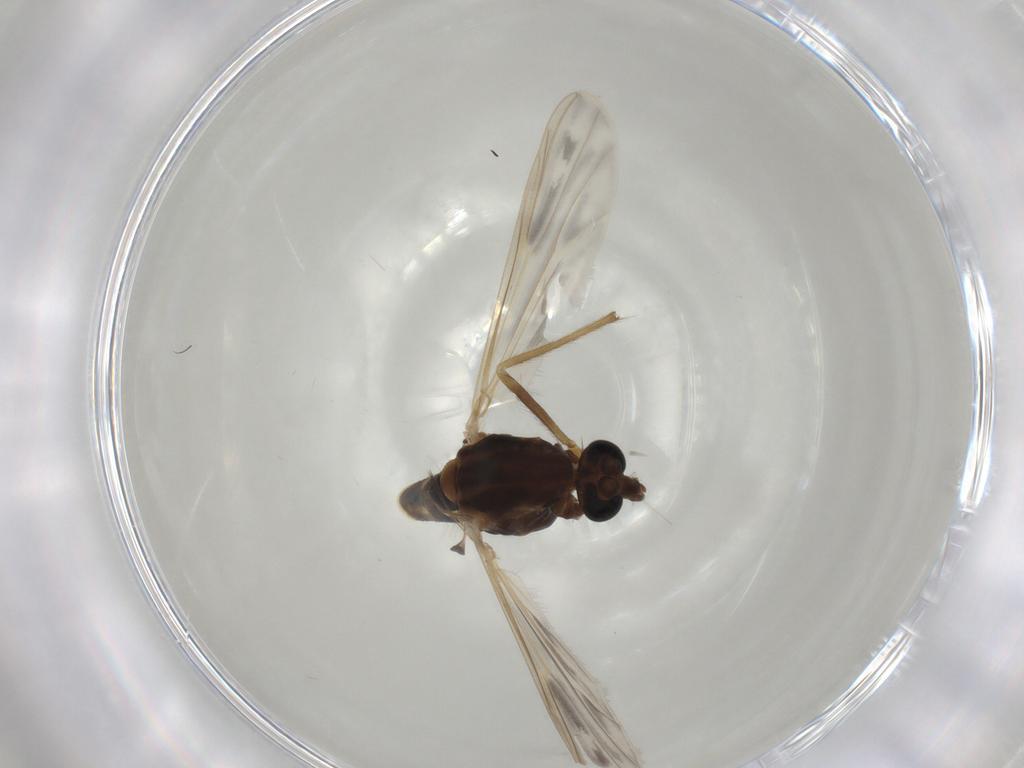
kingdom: Animalia
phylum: Arthropoda
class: Insecta
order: Diptera
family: Chironomidae
